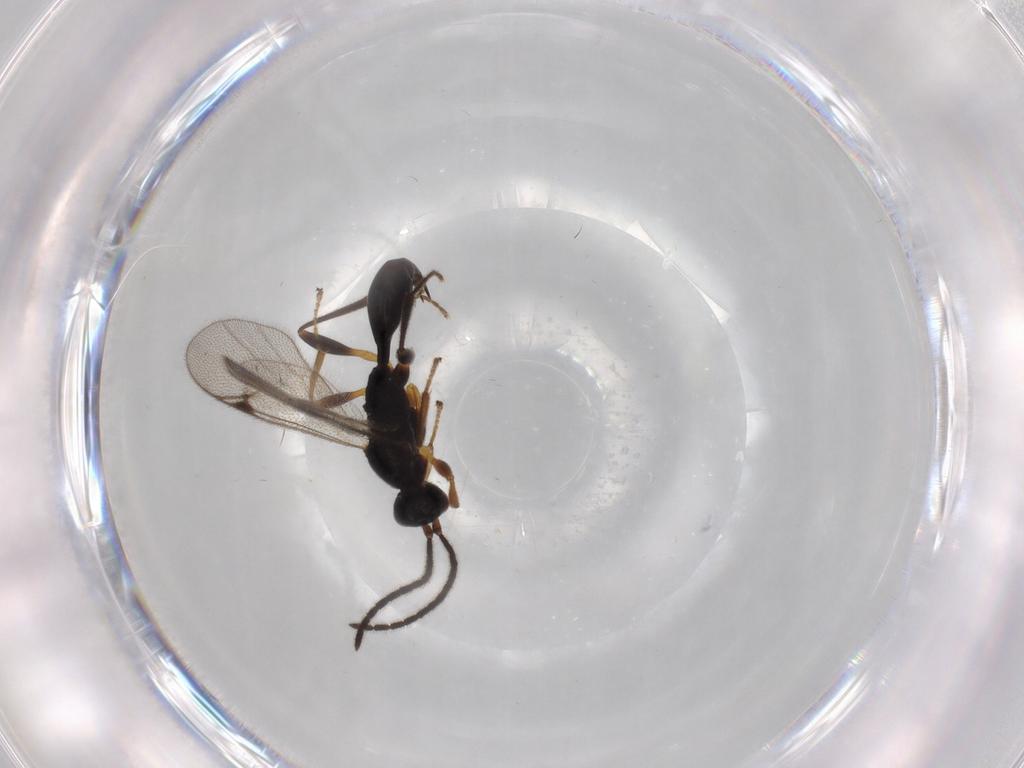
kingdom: Animalia
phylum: Arthropoda
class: Insecta
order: Hymenoptera
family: Proctotrupidae
